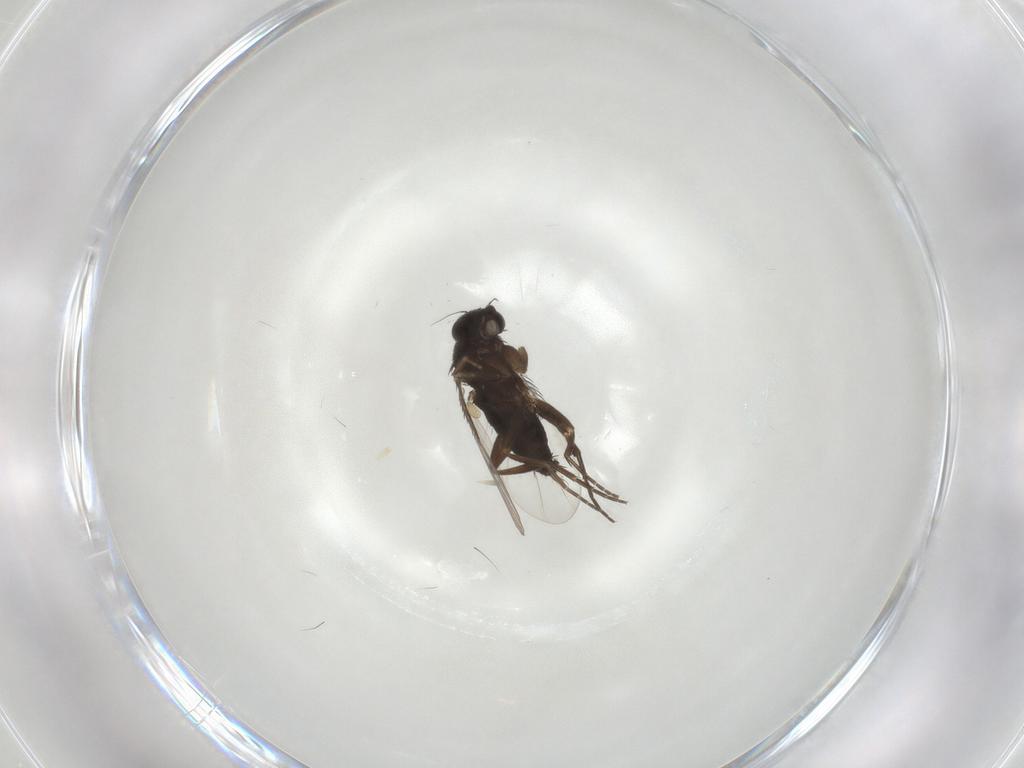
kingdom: Animalia
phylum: Arthropoda
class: Insecta
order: Diptera
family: Phoridae
